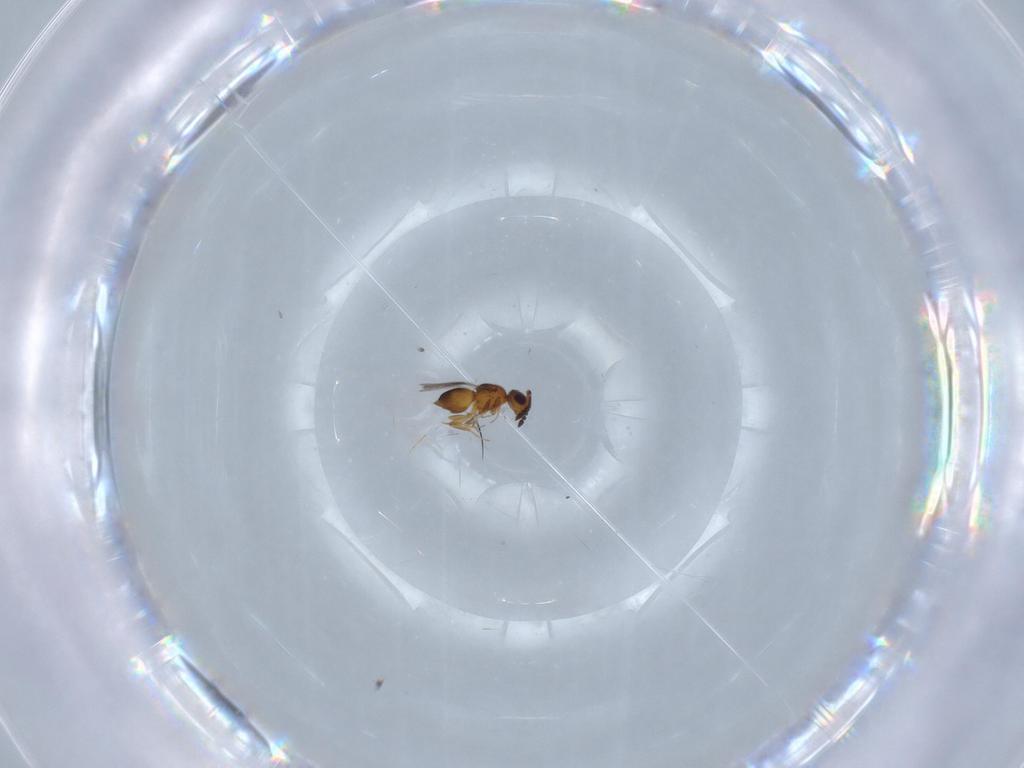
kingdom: Animalia
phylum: Arthropoda
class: Insecta
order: Hymenoptera
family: Ceraphronidae
